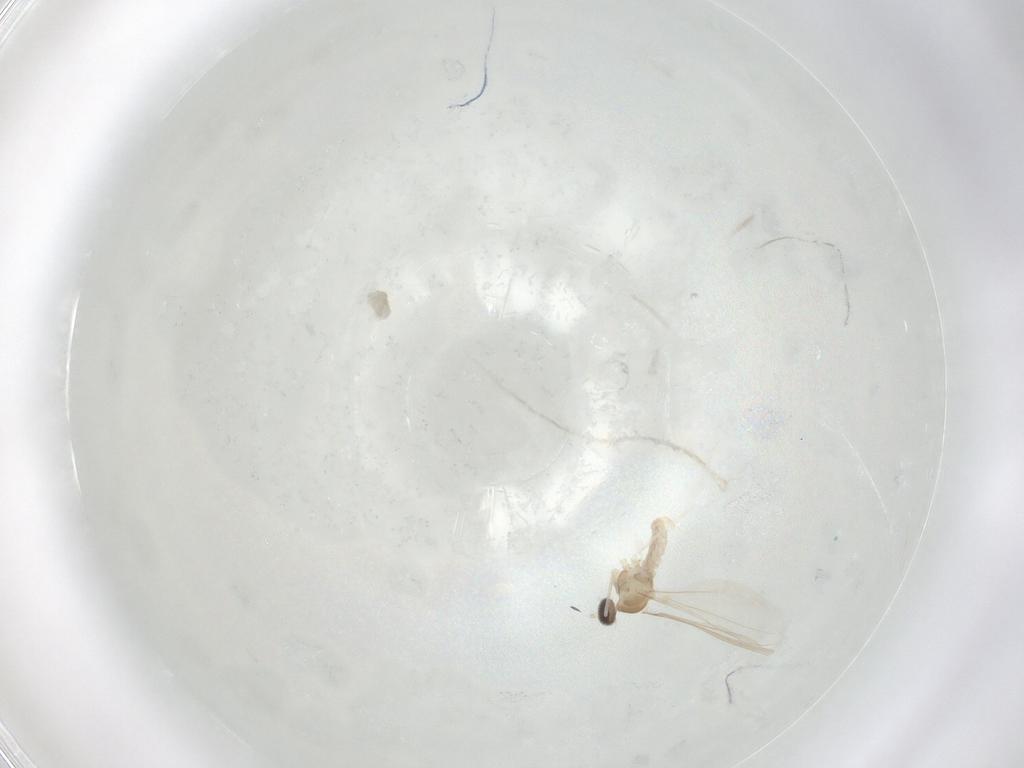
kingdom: Animalia
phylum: Arthropoda
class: Insecta
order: Diptera
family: Cecidomyiidae
